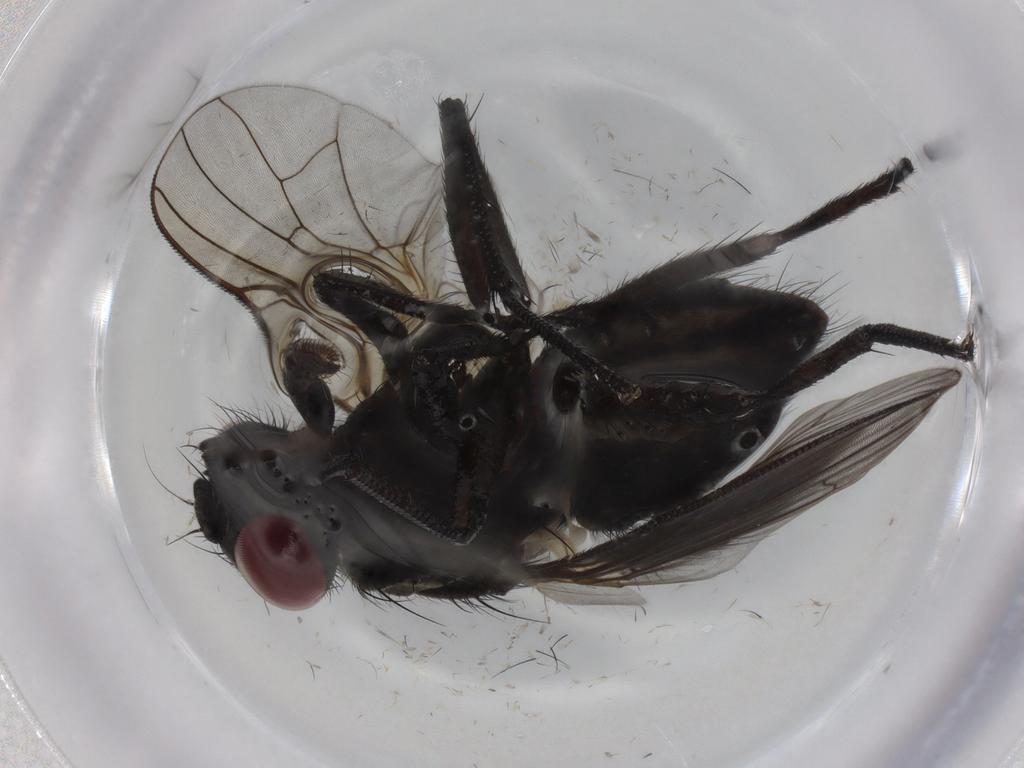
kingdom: Animalia
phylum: Arthropoda
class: Insecta
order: Diptera
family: Muscidae
